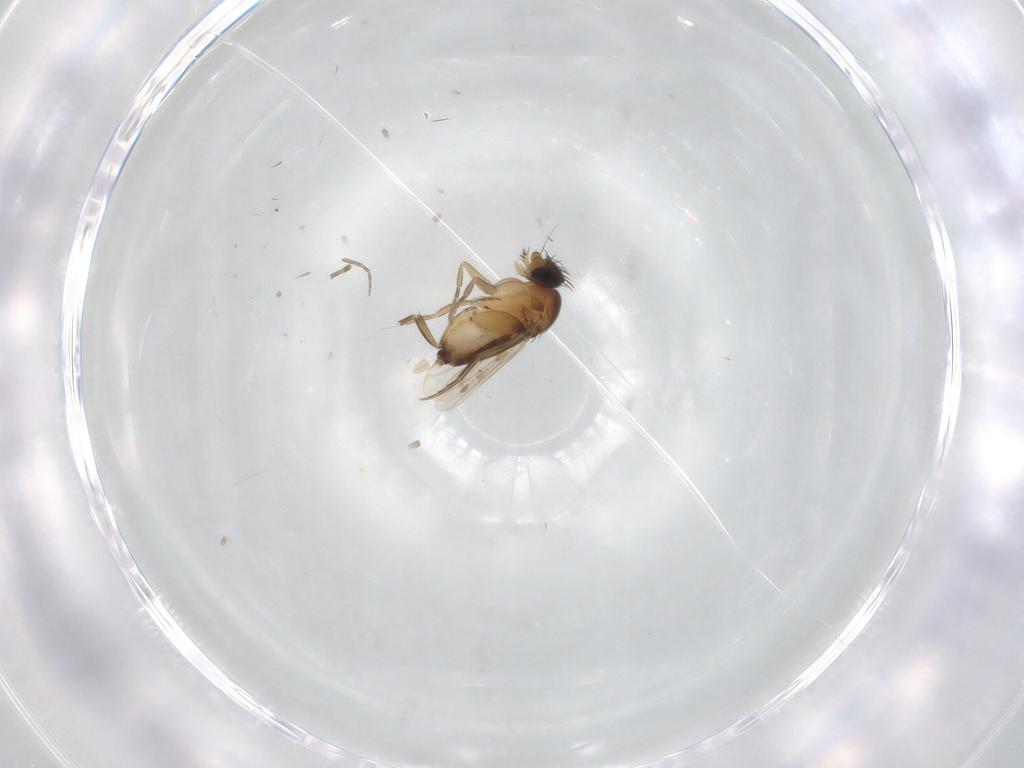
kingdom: Animalia
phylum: Arthropoda
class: Insecta
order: Diptera
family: Phoridae
